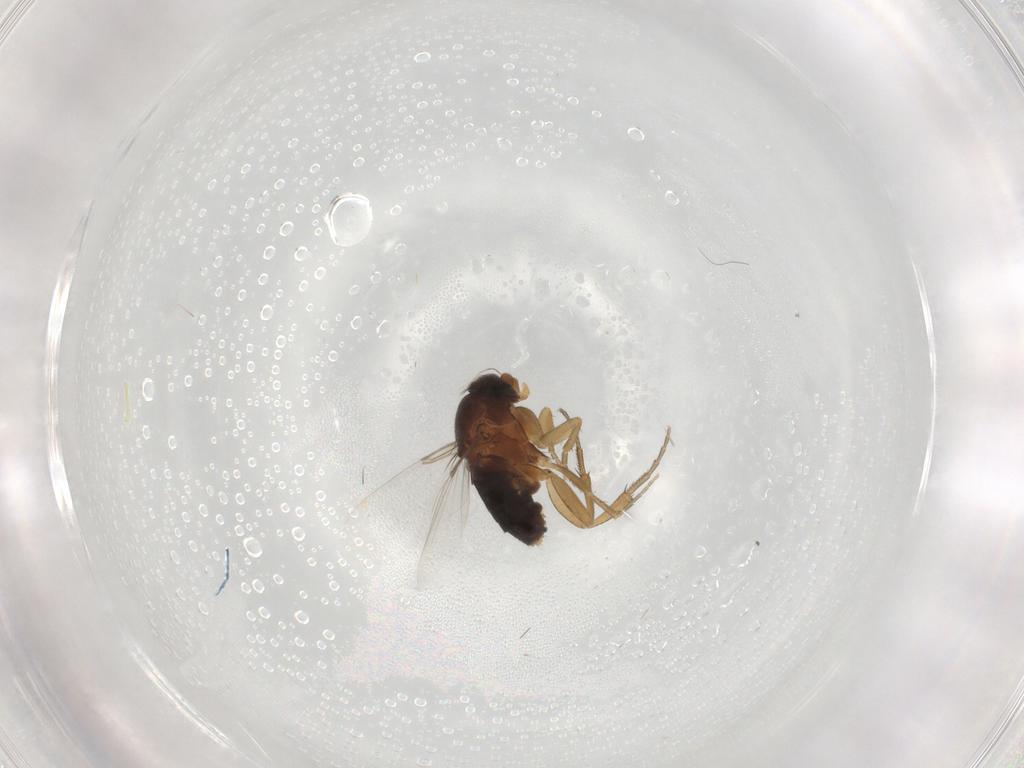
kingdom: Animalia
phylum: Arthropoda
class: Insecta
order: Diptera
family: Phoridae
